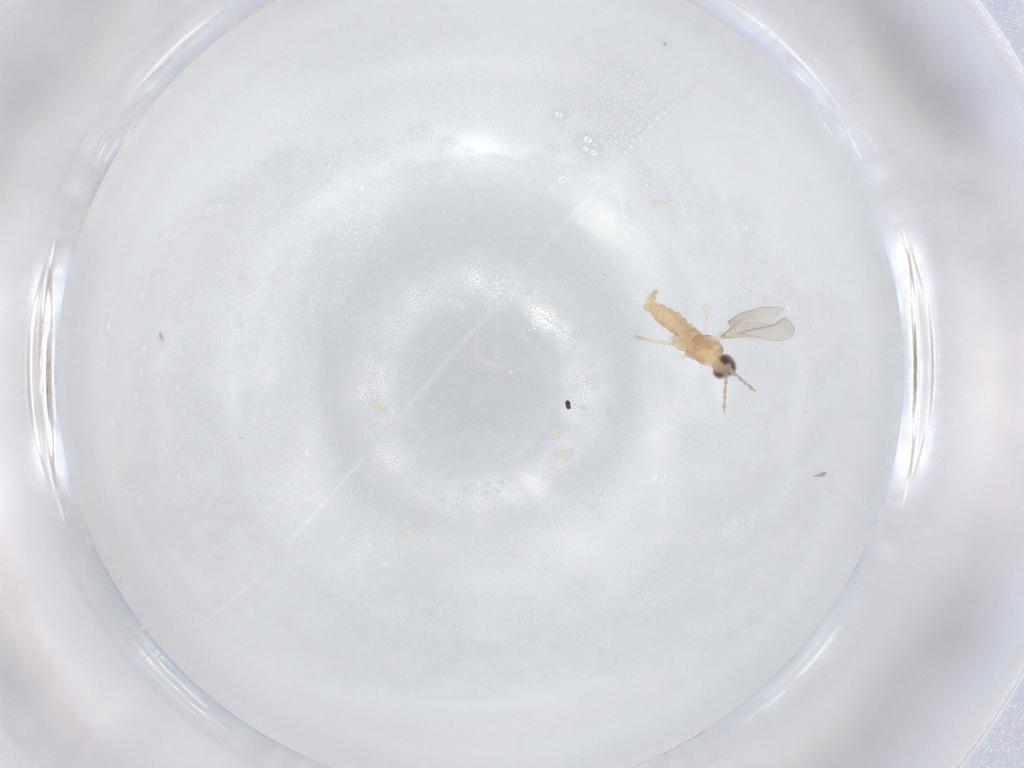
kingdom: Animalia
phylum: Arthropoda
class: Insecta
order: Diptera
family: Cecidomyiidae
